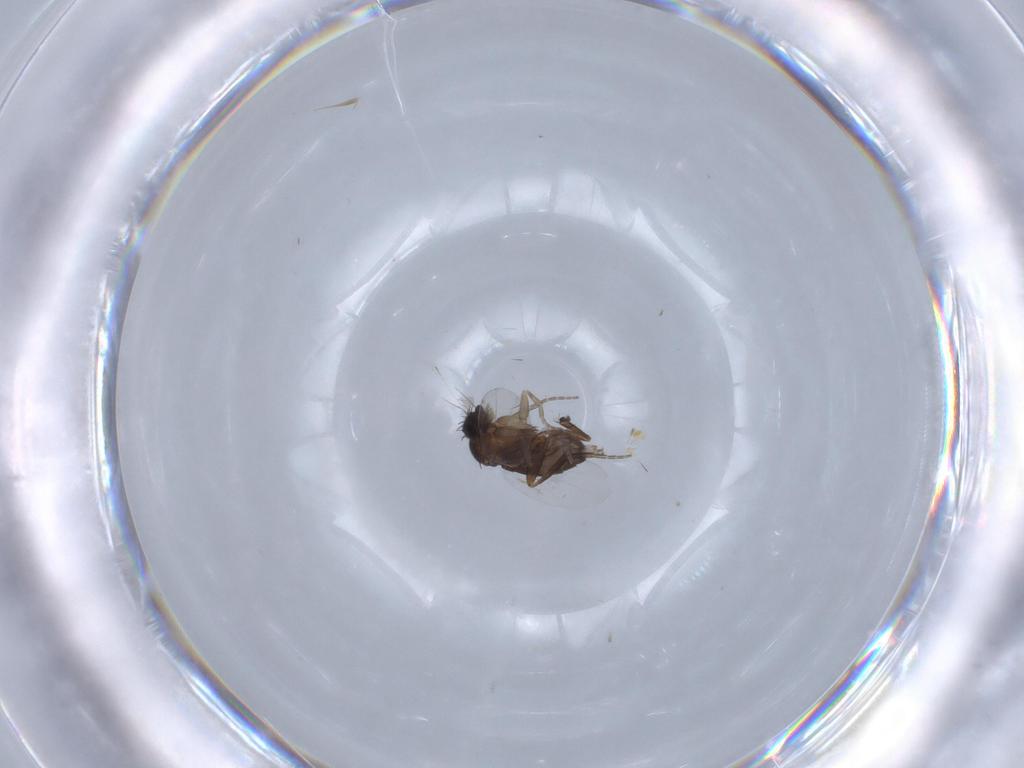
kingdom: Animalia
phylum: Arthropoda
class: Insecta
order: Diptera
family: Phoridae
